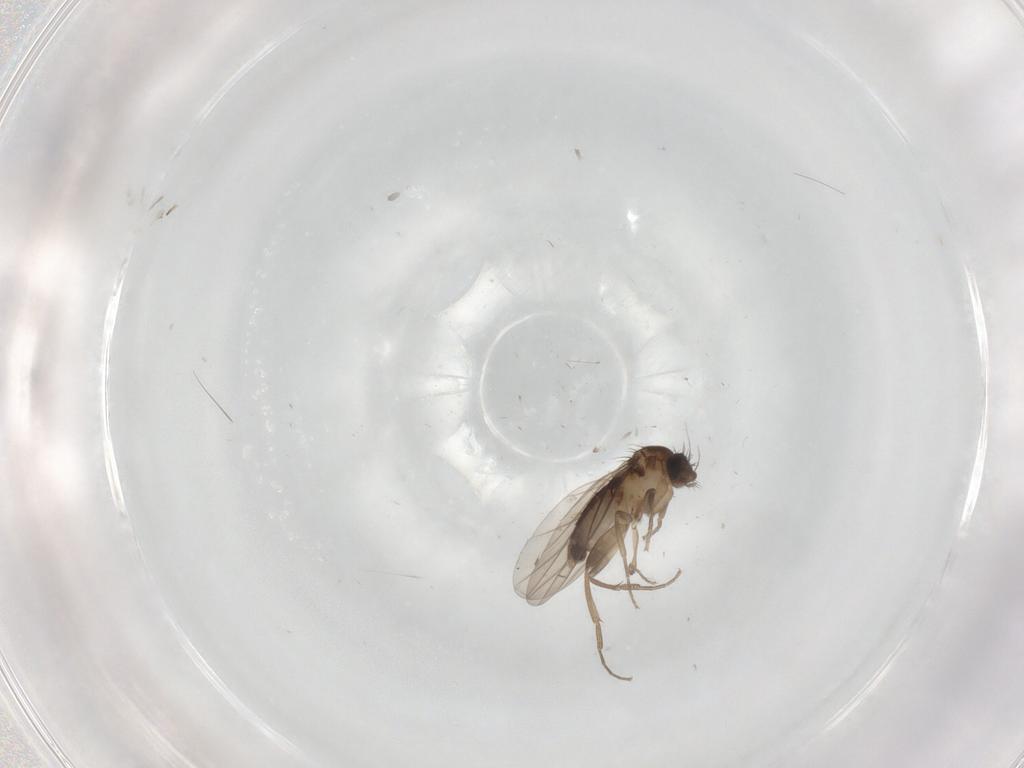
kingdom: Animalia
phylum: Arthropoda
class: Insecta
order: Diptera
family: Phoridae
